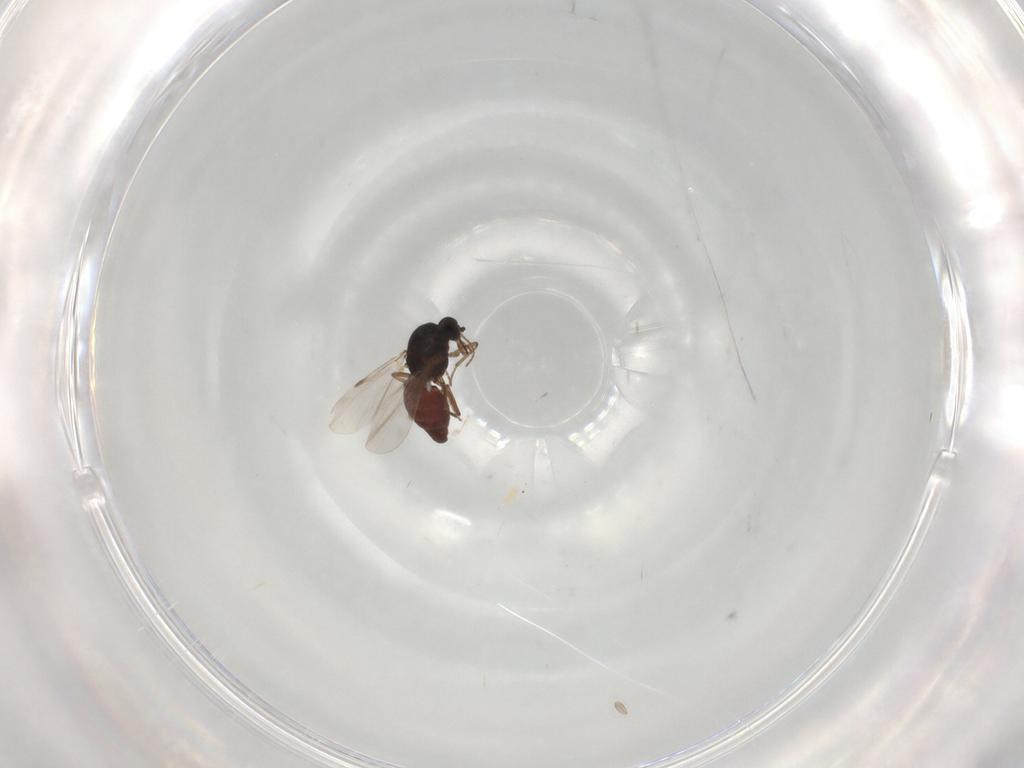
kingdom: Animalia
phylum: Arthropoda
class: Insecta
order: Diptera
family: Ceratopogonidae
